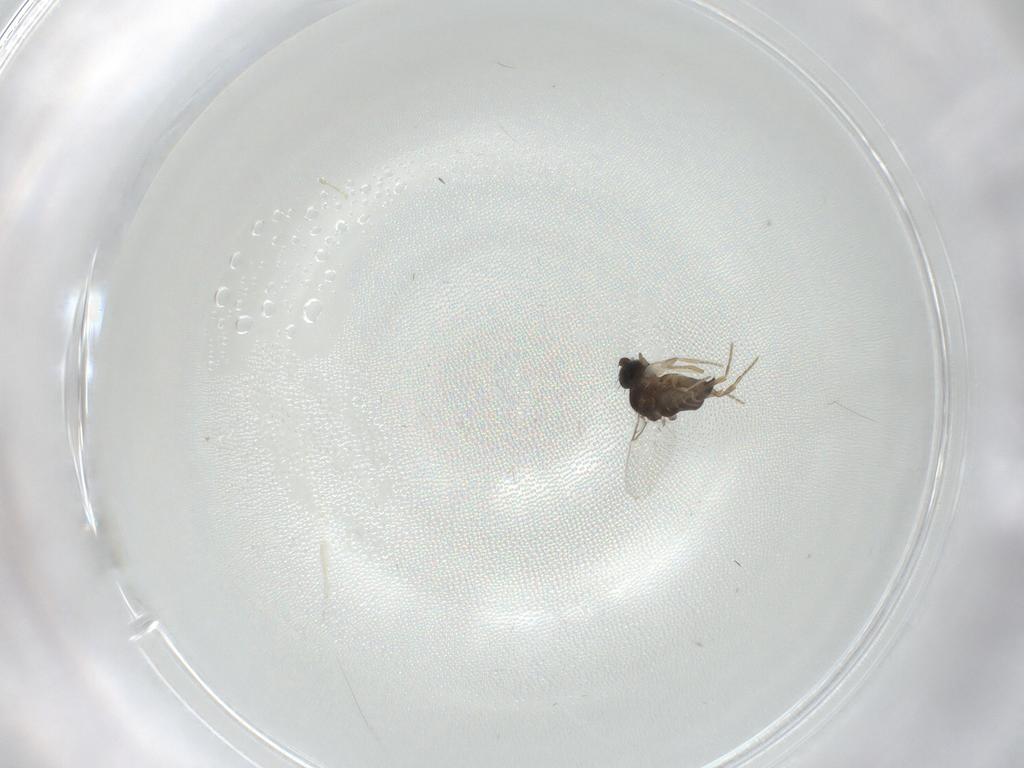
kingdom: Animalia
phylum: Arthropoda
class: Insecta
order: Diptera
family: Phoridae
